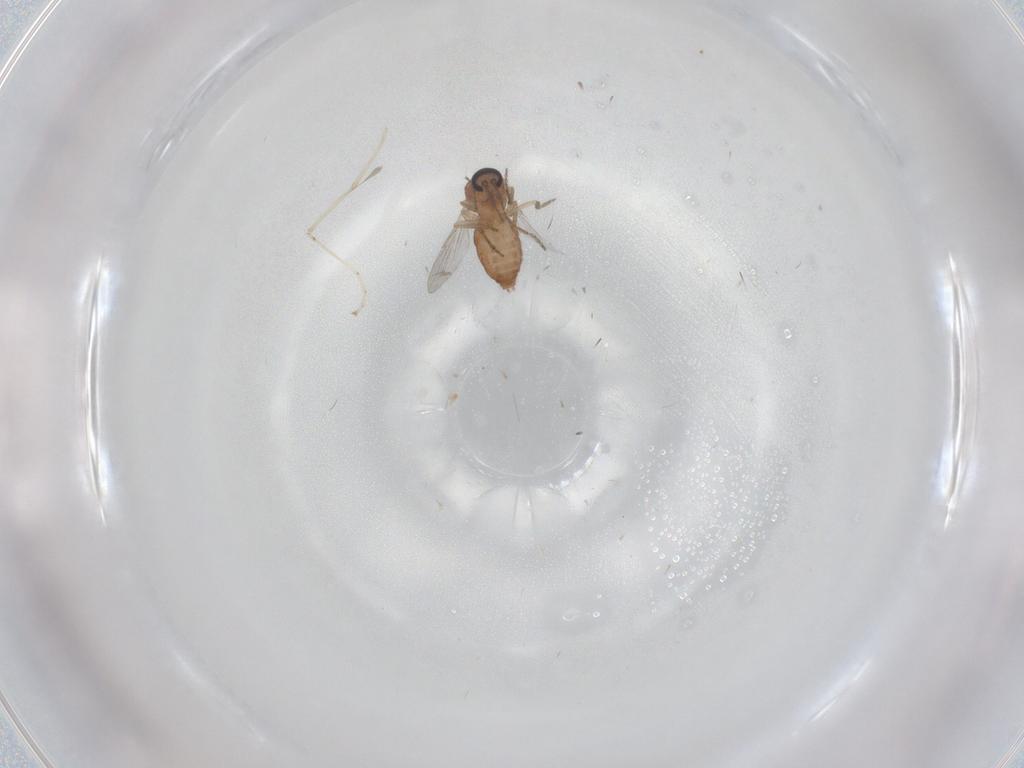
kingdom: Animalia
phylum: Arthropoda
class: Insecta
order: Diptera
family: Ceratopogonidae
